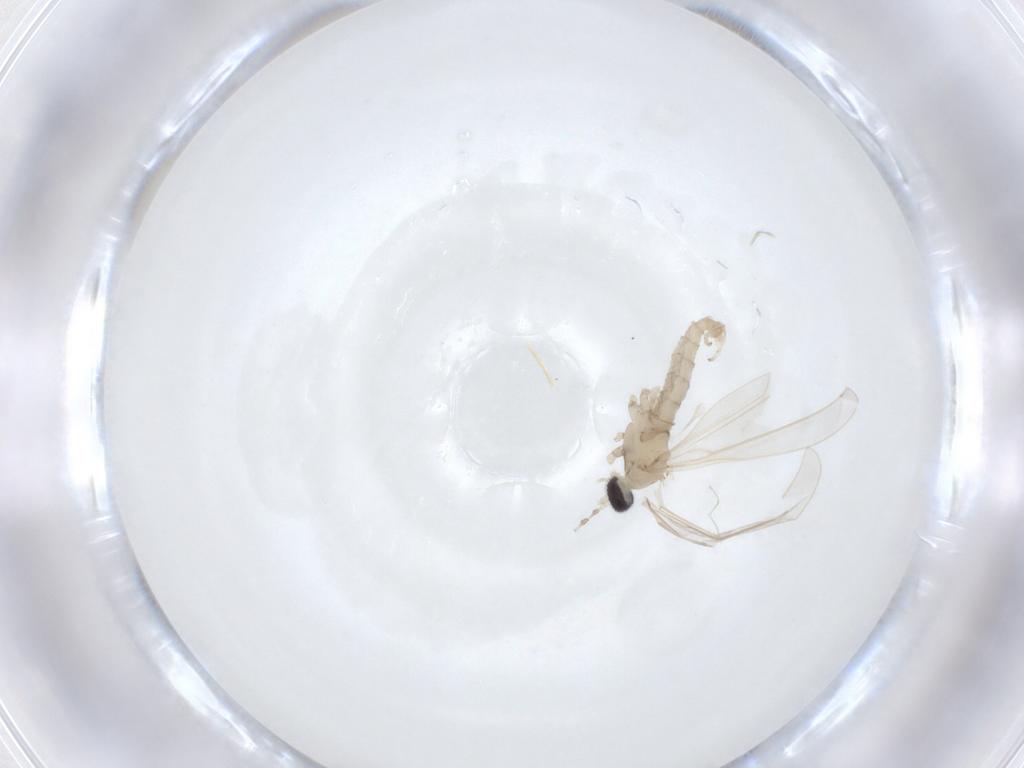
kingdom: Animalia
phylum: Arthropoda
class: Insecta
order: Diptera
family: Cecidomyiidae
